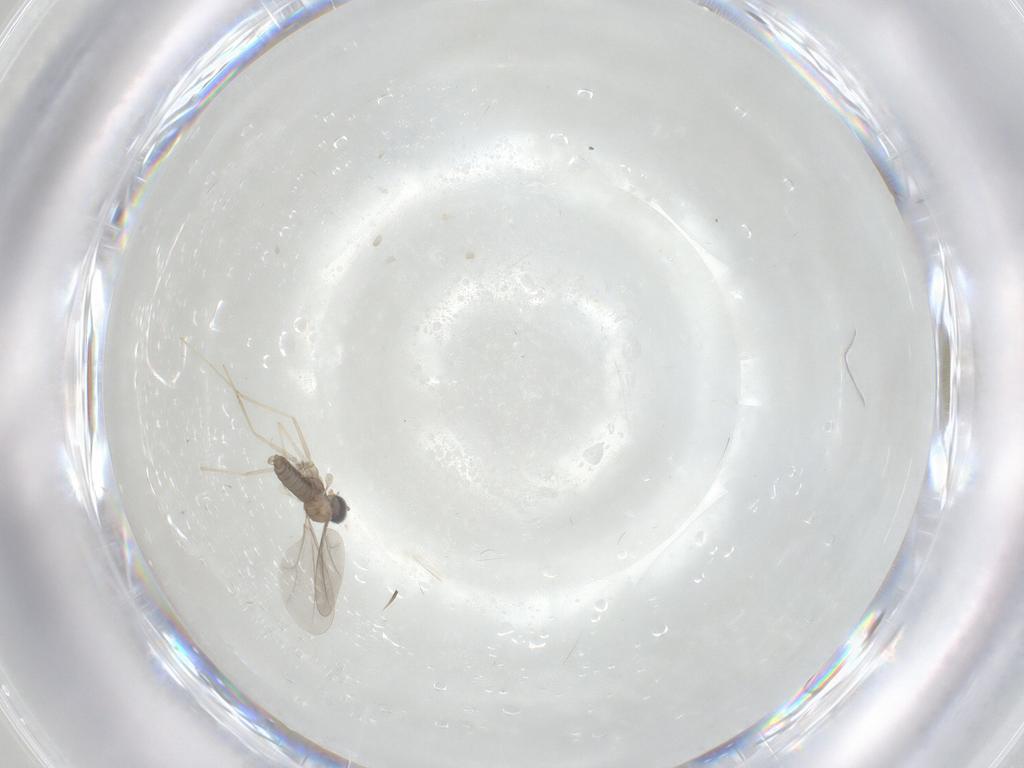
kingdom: Animalia
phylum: Arthropoda
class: Insecta
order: Diptera
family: Chironomidae
